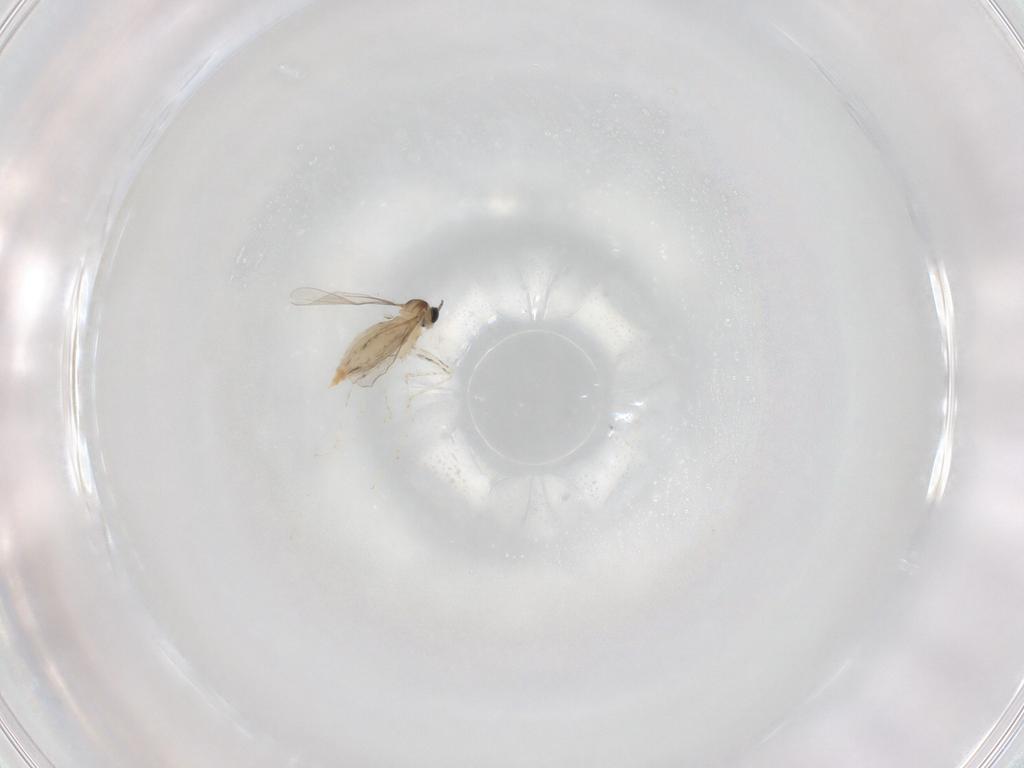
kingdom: Animalia
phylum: Arthropoda
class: Insecta
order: Diptera
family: Cecidomyiidae
